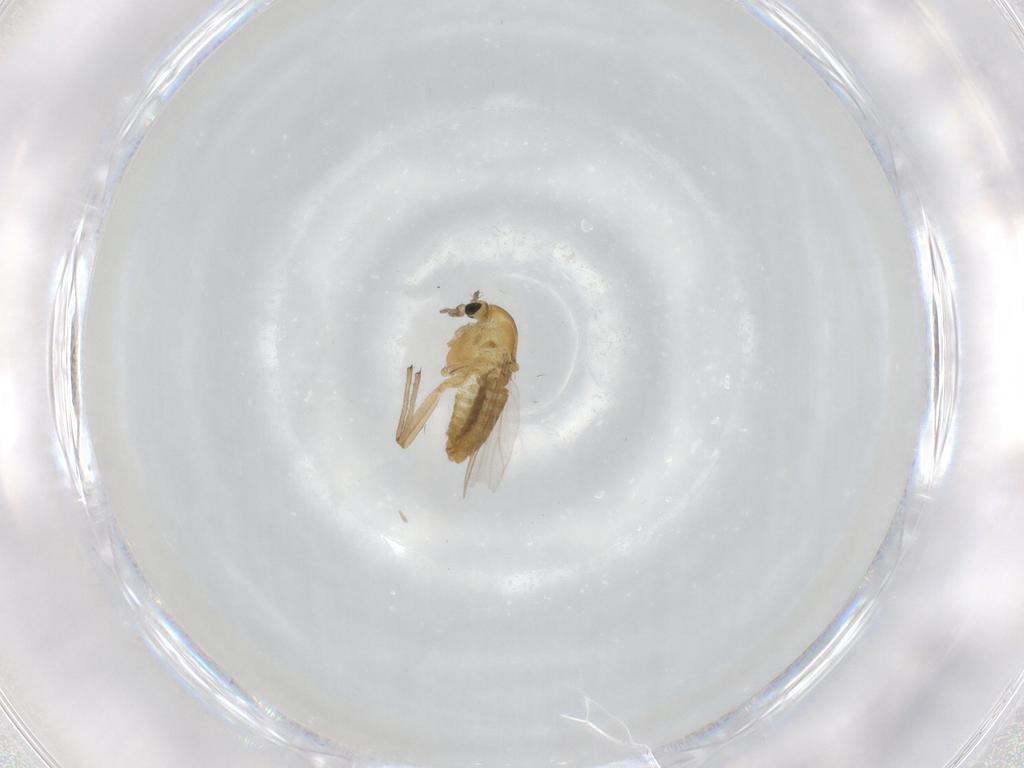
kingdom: Animalia
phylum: Arthropoda
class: Insecta
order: Diptera
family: Chironomidae
